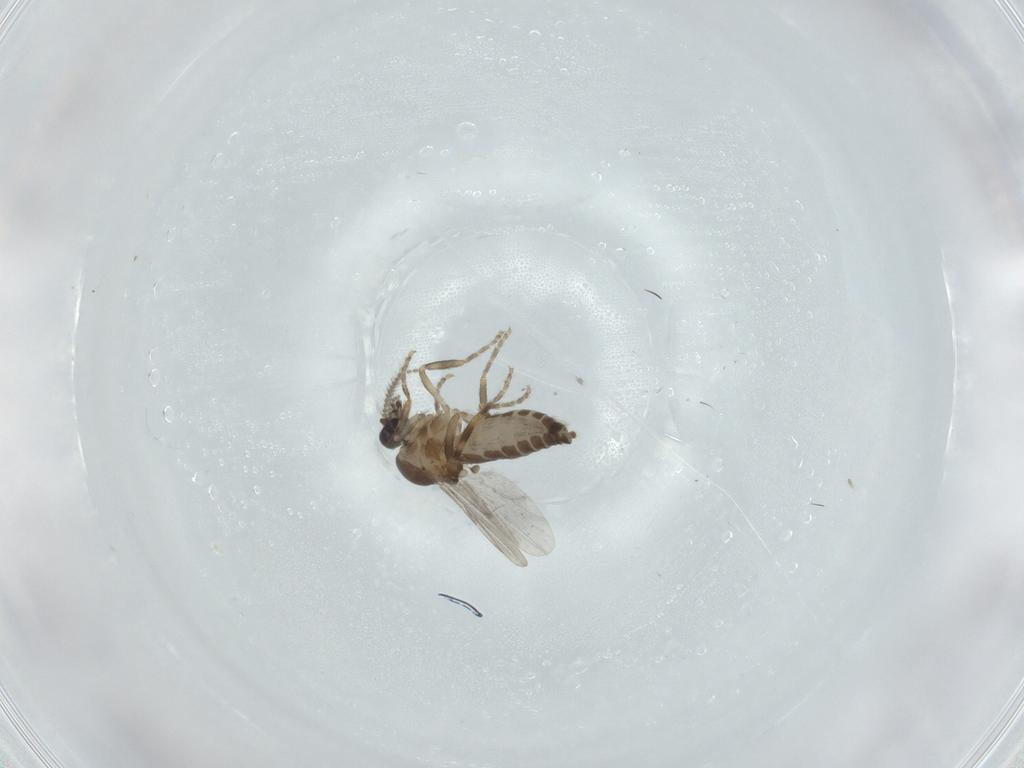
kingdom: Animalia
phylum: Arthropoda
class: Insecta
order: Diptera
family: Ceratopogonidae
